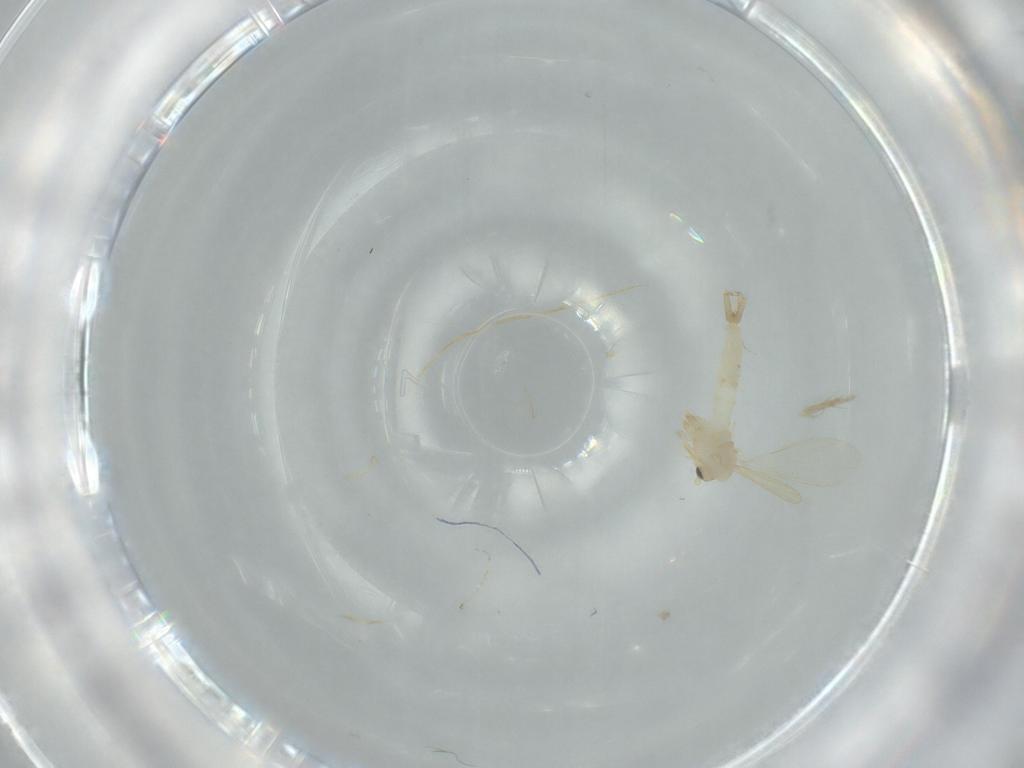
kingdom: Animalia
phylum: Arthropoda
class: Insecta
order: Diptera
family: Psychodidae
